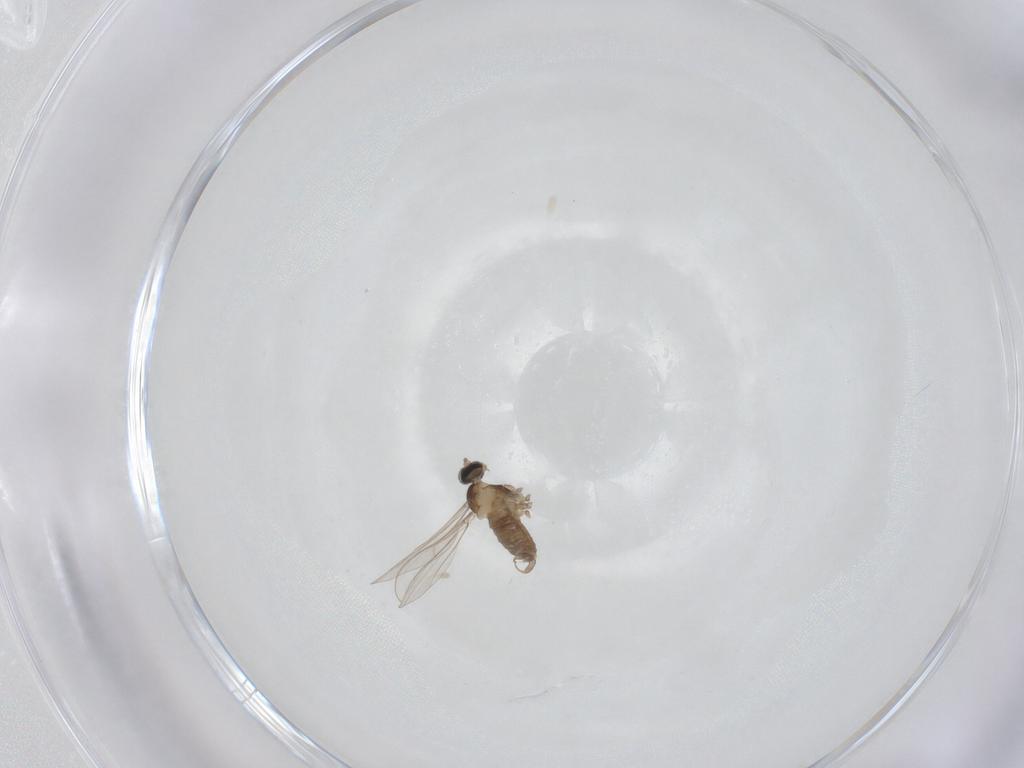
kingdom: Animalia
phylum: Arthropoda
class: Insecta
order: Diptera
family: Cecidomyiidae
